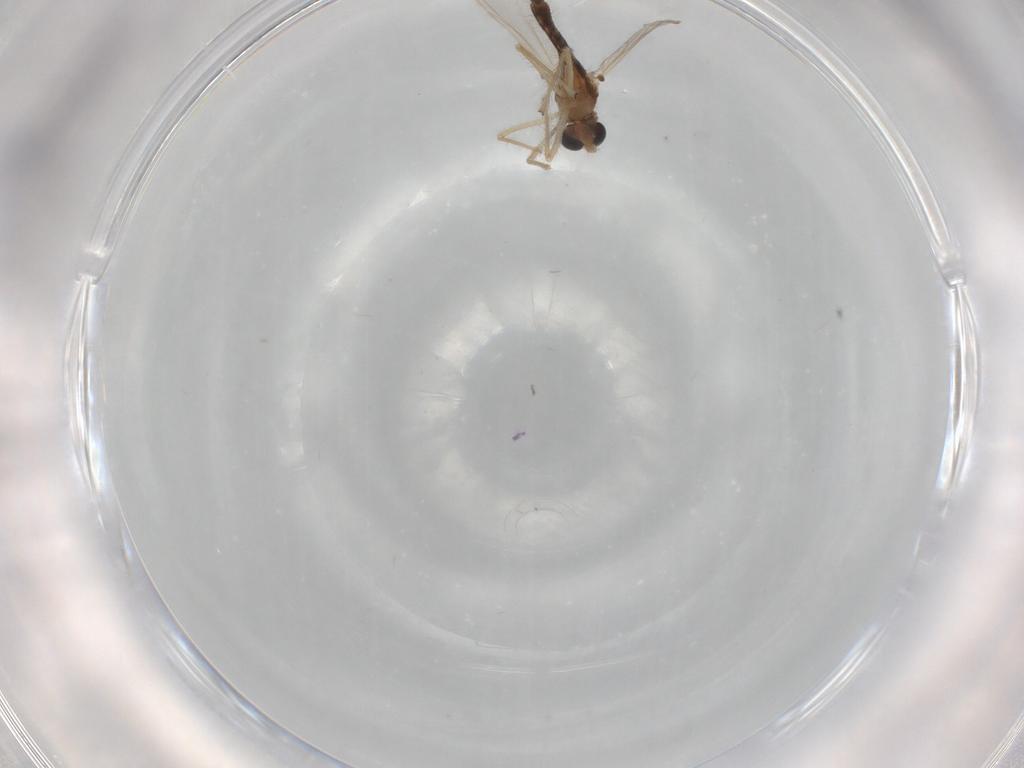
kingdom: Animalia
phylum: Arthropoda
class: Insecta
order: Diptera
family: Chironomidae
